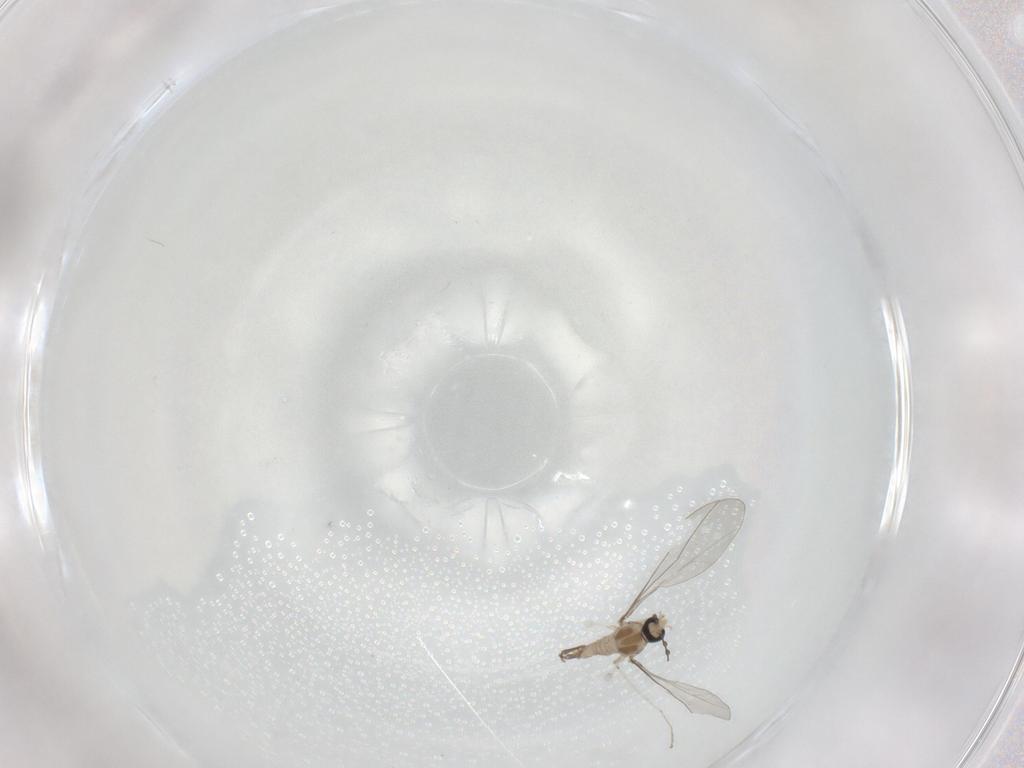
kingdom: Animalia
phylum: Arthropoda
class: Insecta
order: Diptera
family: Cecidomyiidae
